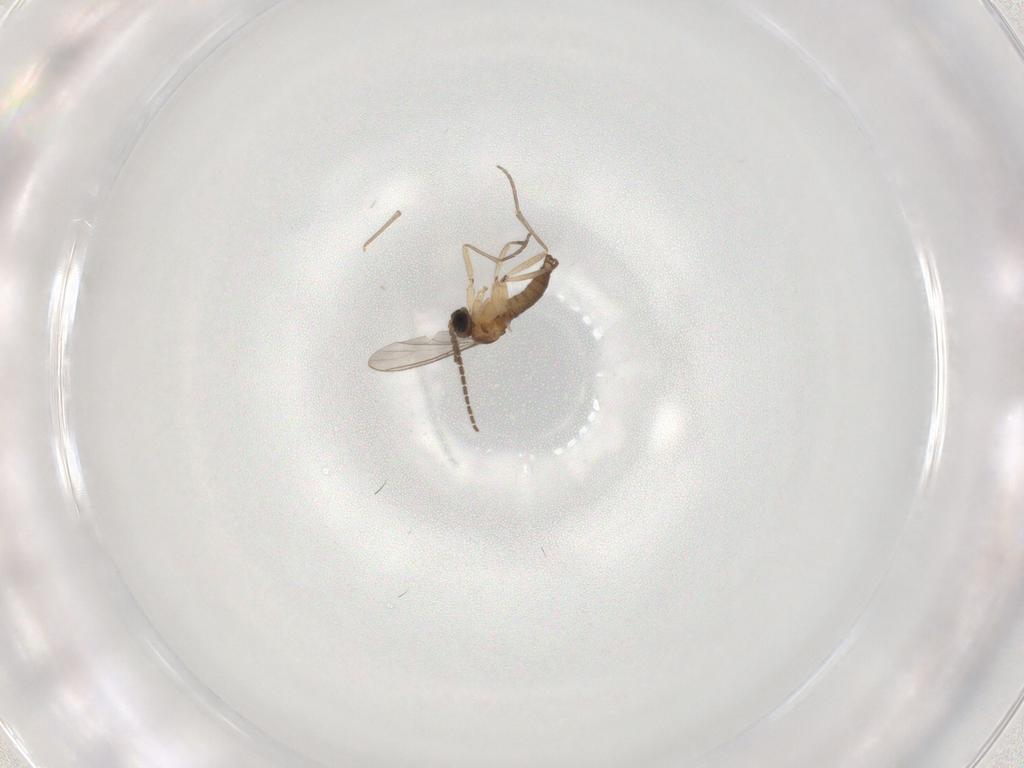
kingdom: Animalia
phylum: Arthropoda
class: Insecta
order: Diptera
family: Sciaridae
